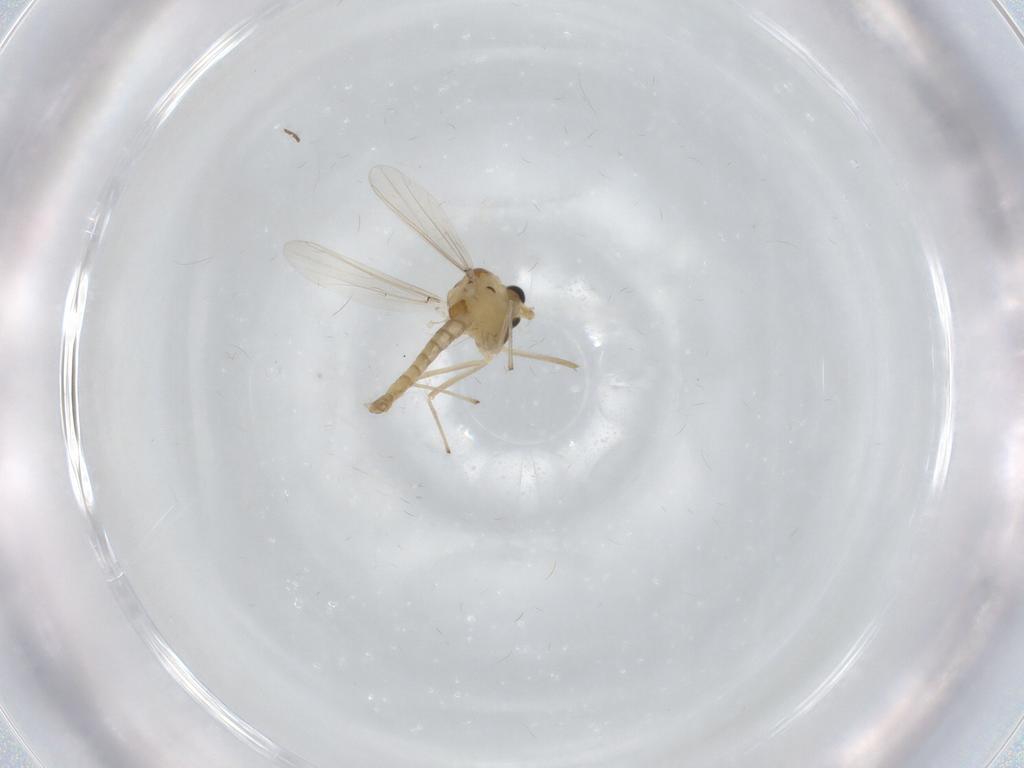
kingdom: Animalia
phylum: Arthropoda
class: Insecta
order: Diptera
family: Chironomidae
